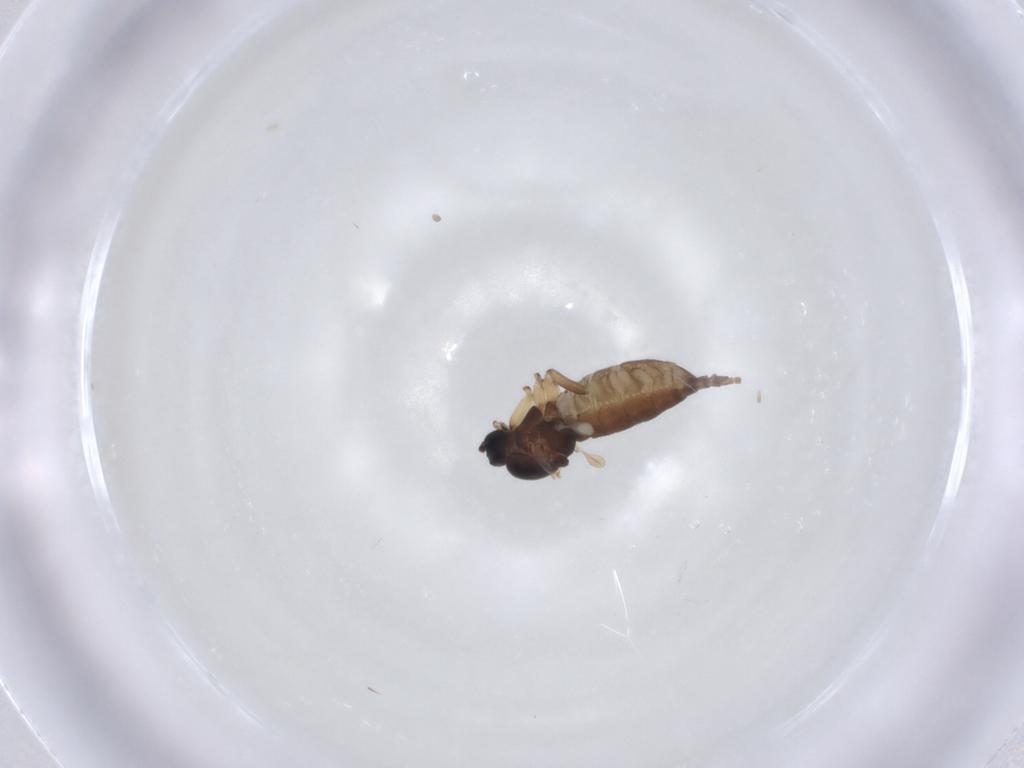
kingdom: Animalia
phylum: Arthropoda
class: Insecta
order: Diptera
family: Sciaridae
